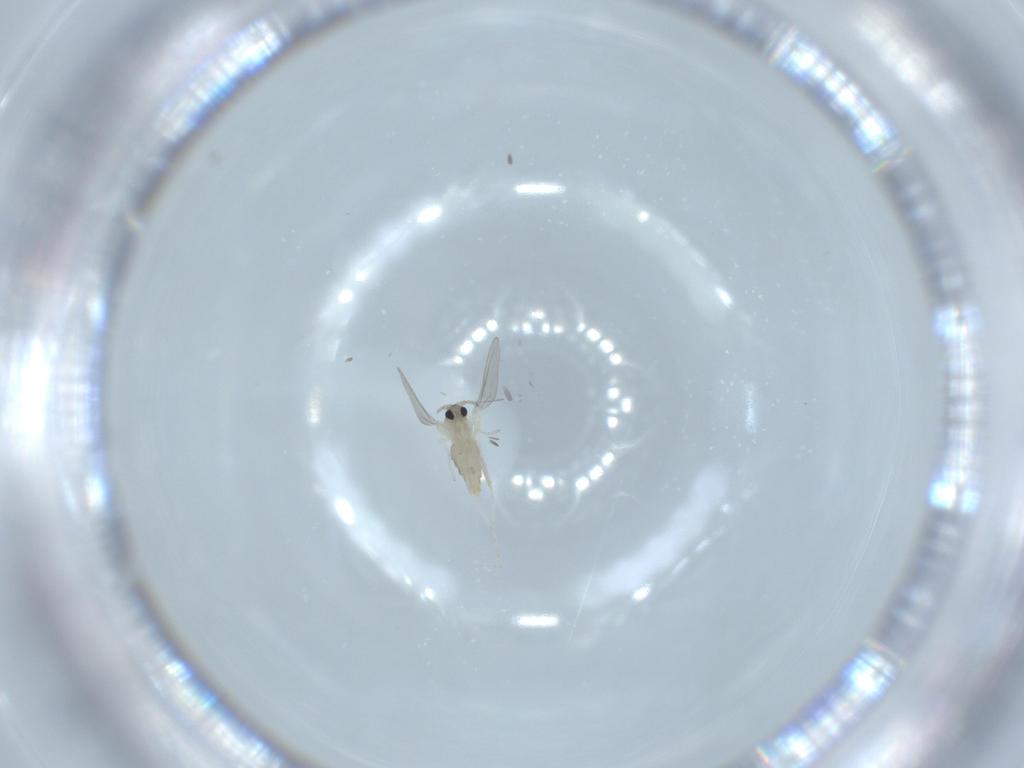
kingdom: Animalia
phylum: Arthropoda
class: Insecta
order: Diptera
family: Cecidomyiidae
